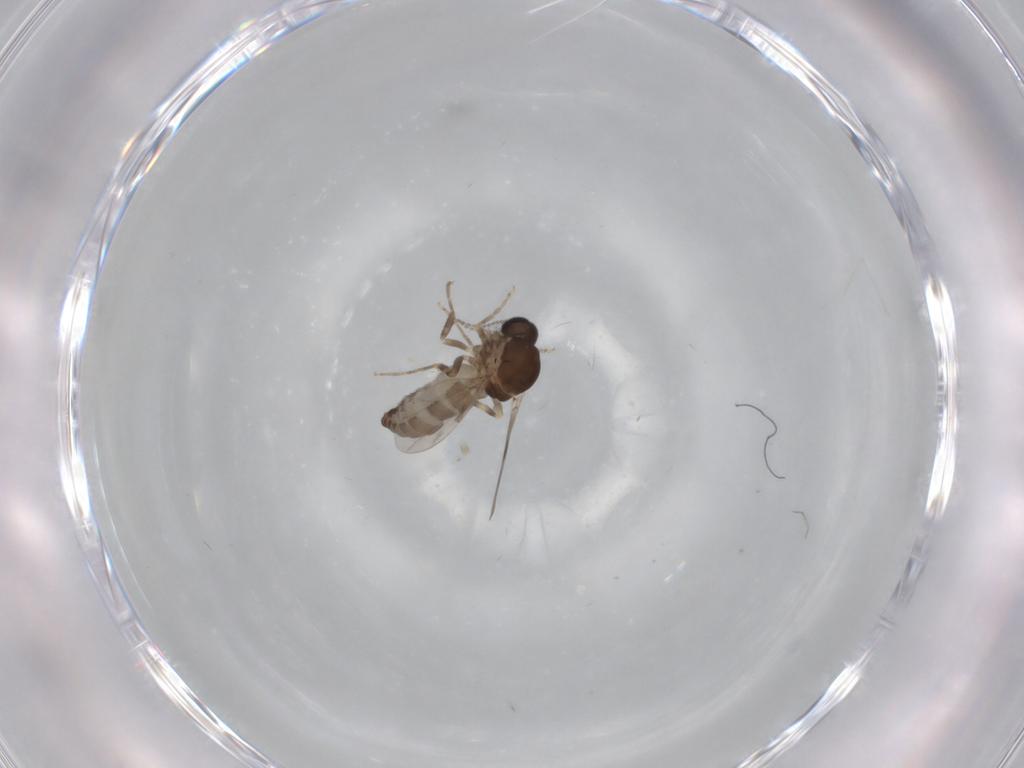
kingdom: Animalia
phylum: Arthropoda
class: Insecta
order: Diptera
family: Ceratopogonidae
